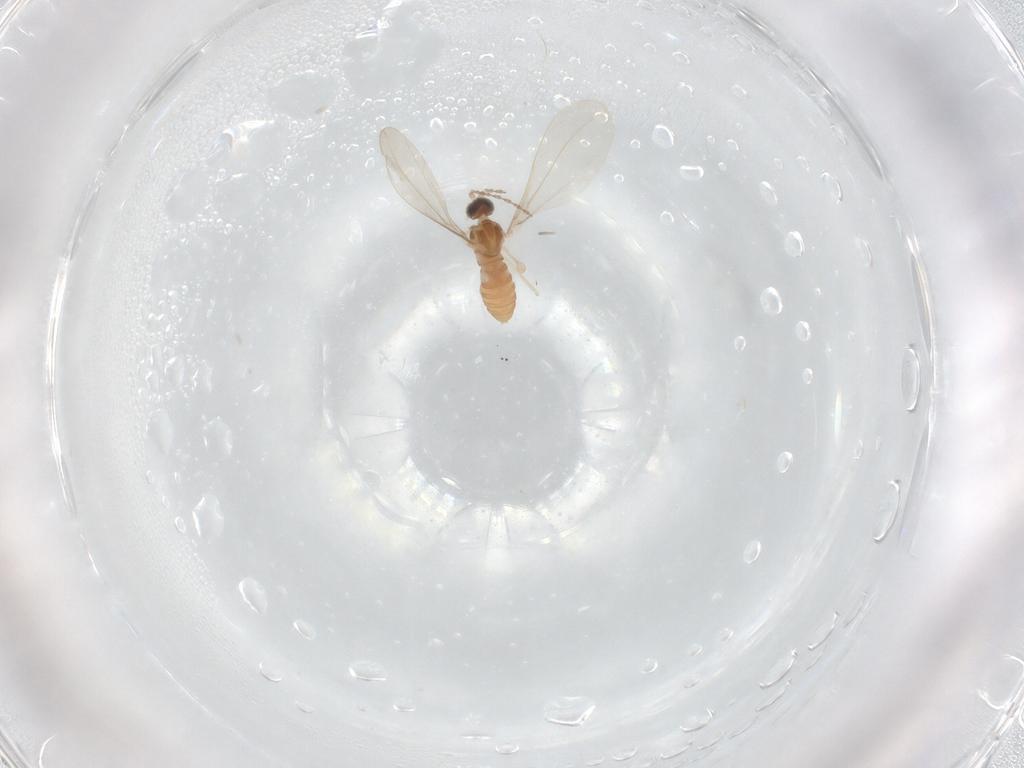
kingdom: Animalia
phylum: Arthropoda
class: Insecta
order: Diptera
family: Cecidomyiidae
